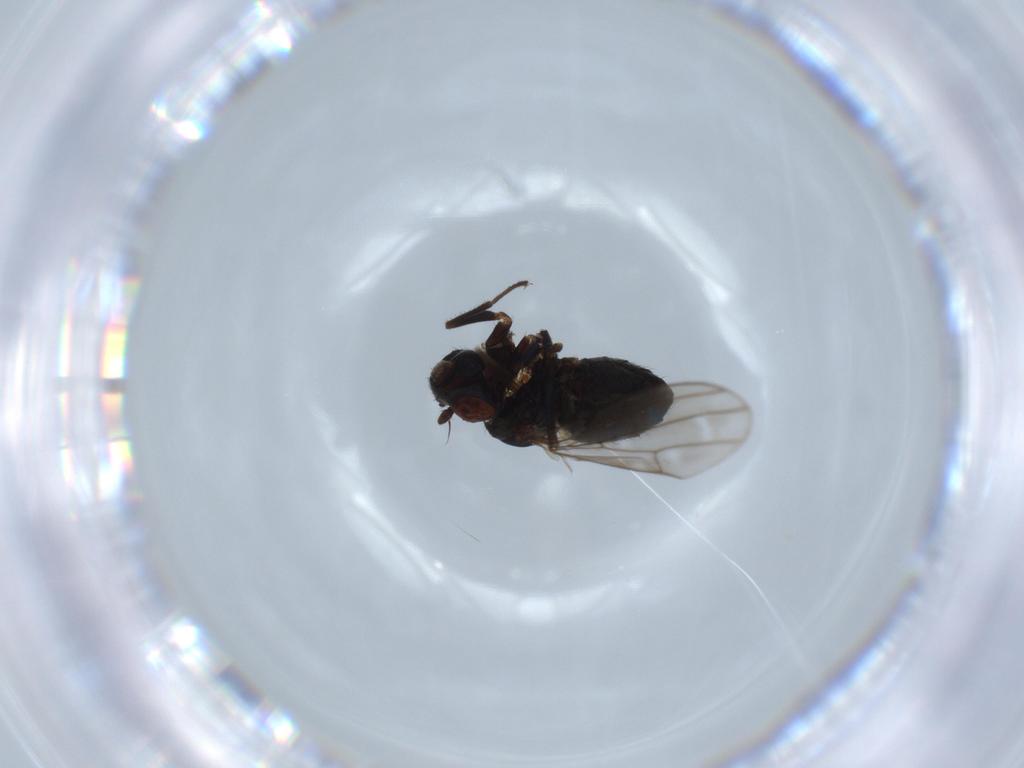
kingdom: Animalia
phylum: Arthropoda
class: Insecta
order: Diptera
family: Ephydridae
